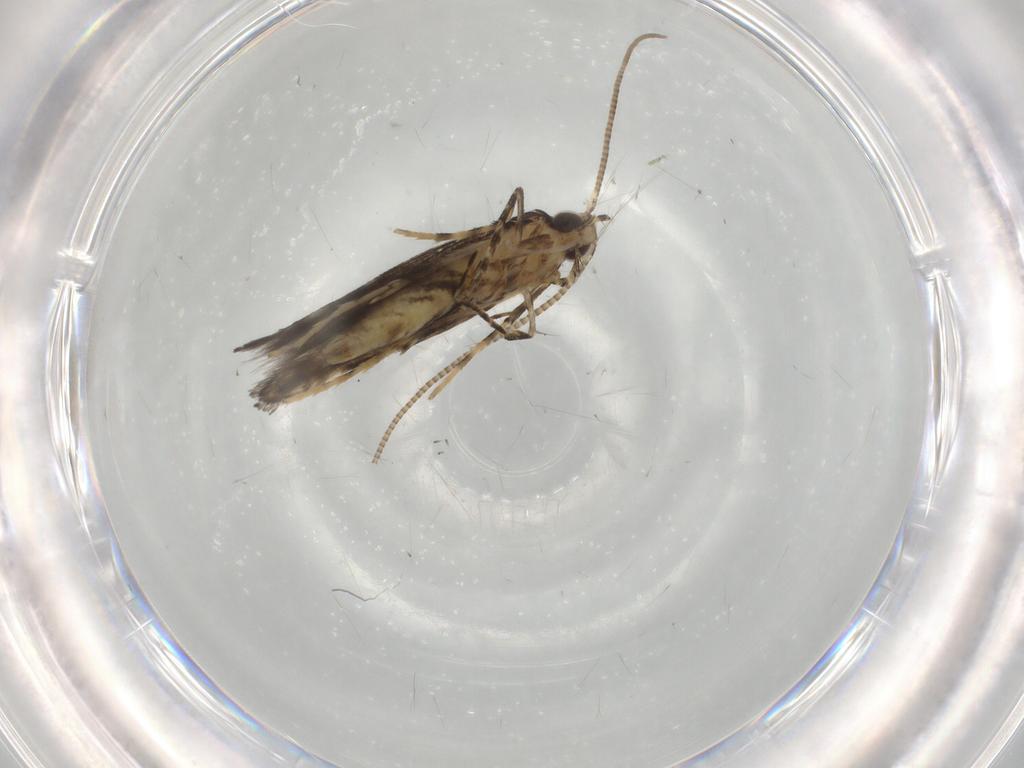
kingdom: Animalia
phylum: Arthropoda
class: Insecta
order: Lepidoptera
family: Gracillariidae
